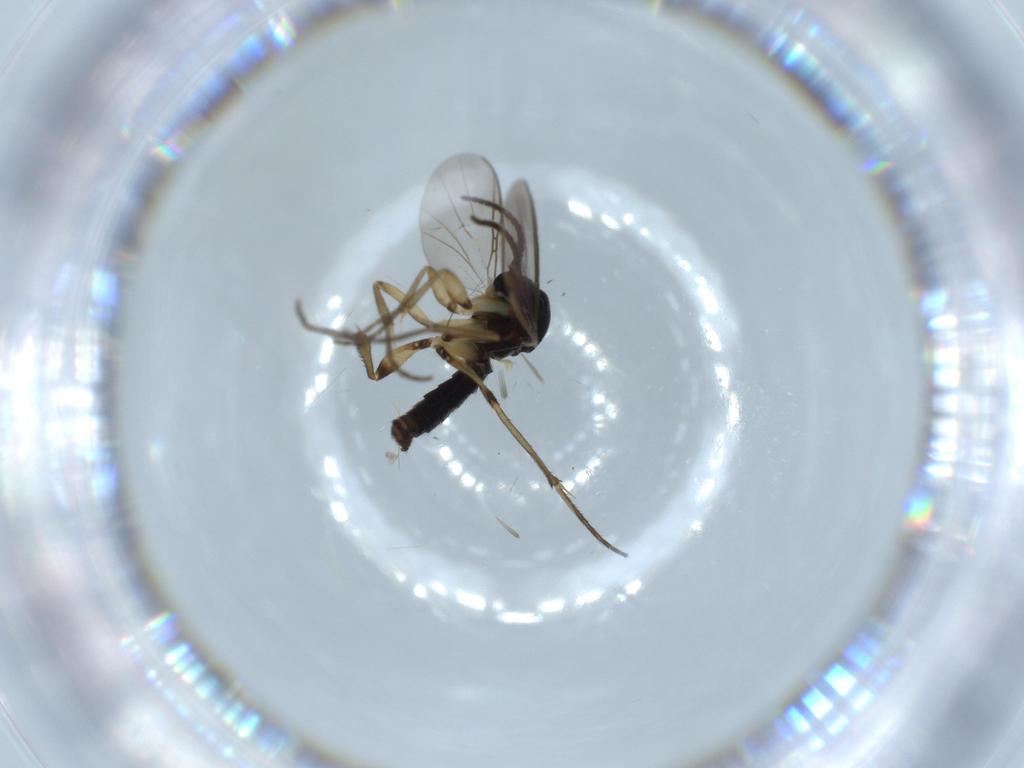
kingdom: Animalia
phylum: Arthropoda
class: Insecta
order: Diptera
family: Mycetophilidae
